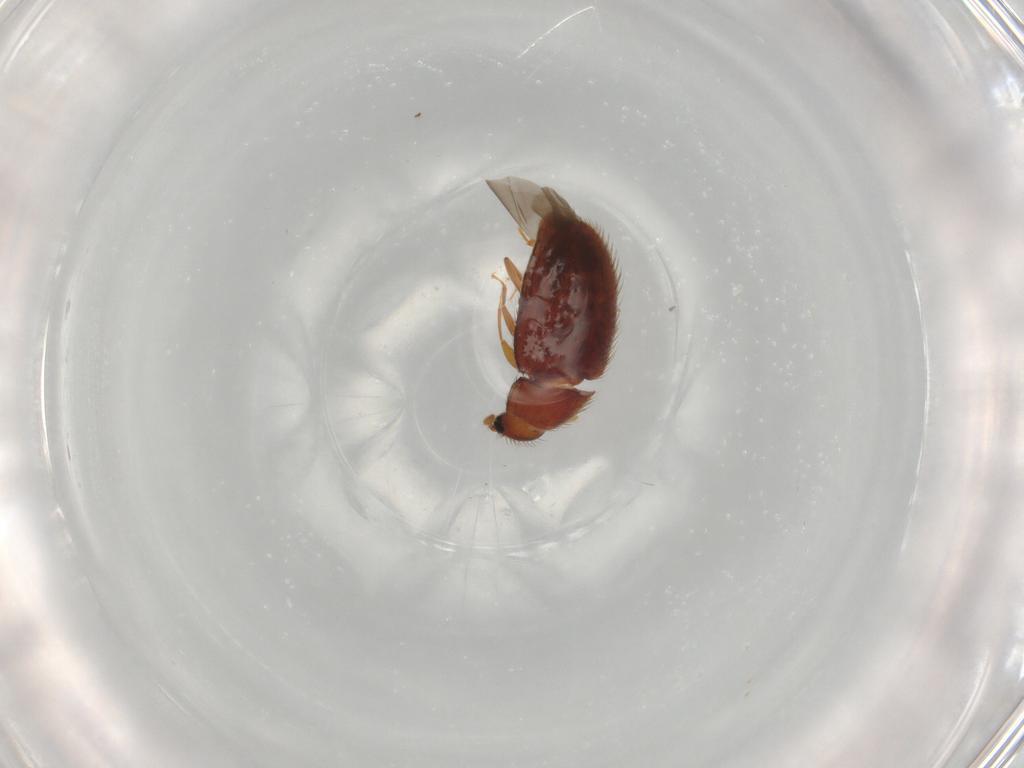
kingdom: Animalia
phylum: Arthropoda
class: Insecta
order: Coleoptera
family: Biphyllidae
